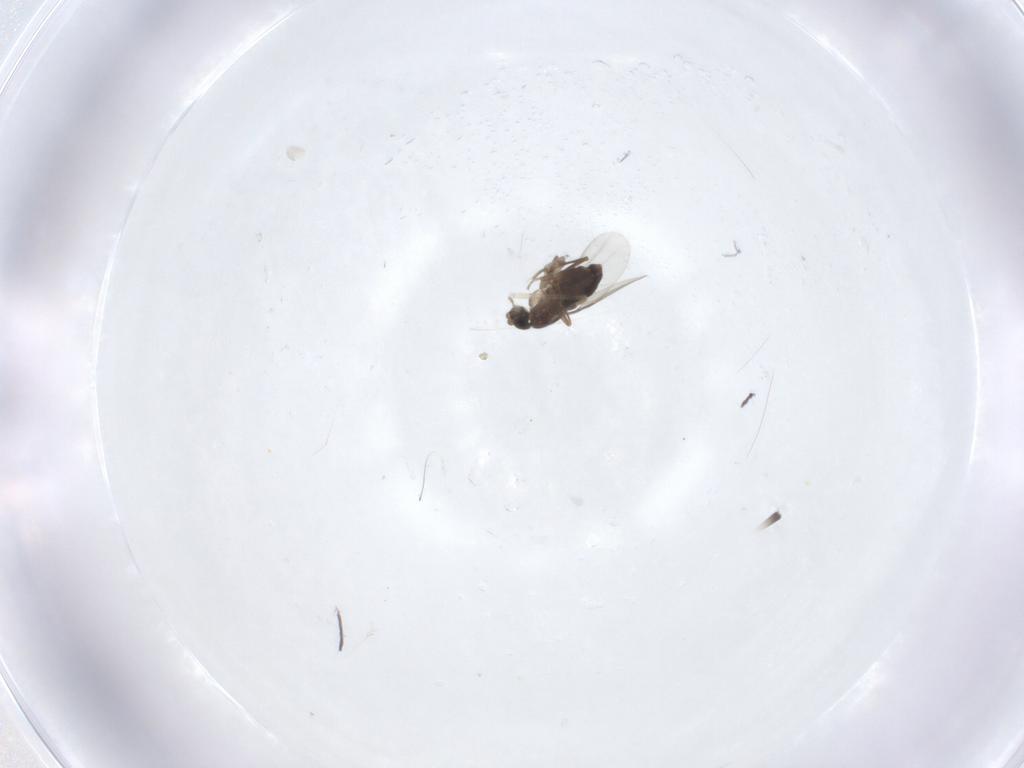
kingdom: Animalia
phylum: Arthropoda
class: Insecta
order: Diptera
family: Phoridae
